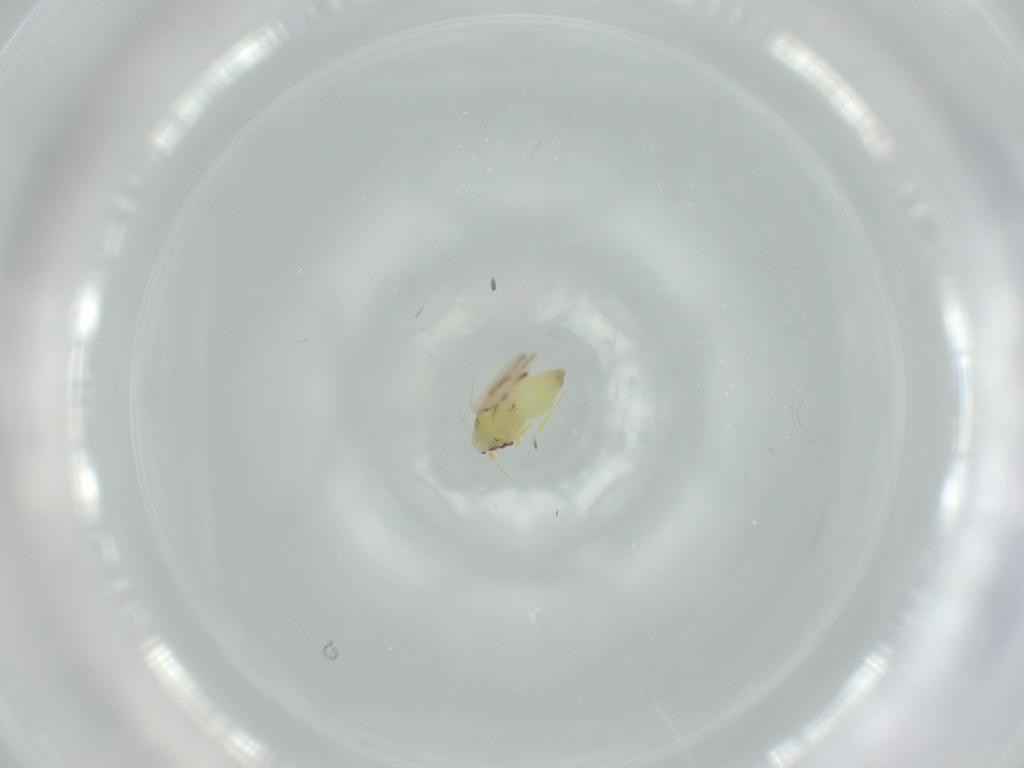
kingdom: Animalia
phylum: Arthropoda
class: Insecta
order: Hemiptera
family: Aleyrodidae
